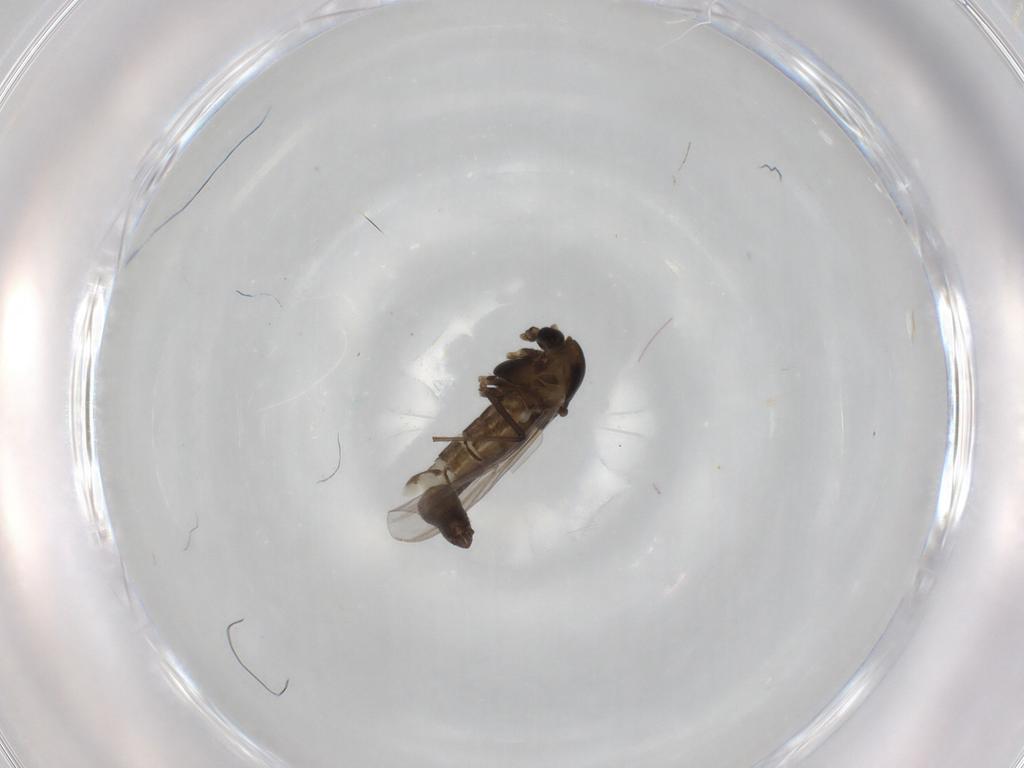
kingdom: Animalia
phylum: Arthropoda
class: Insecta
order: Diptera
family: Chironomidae
